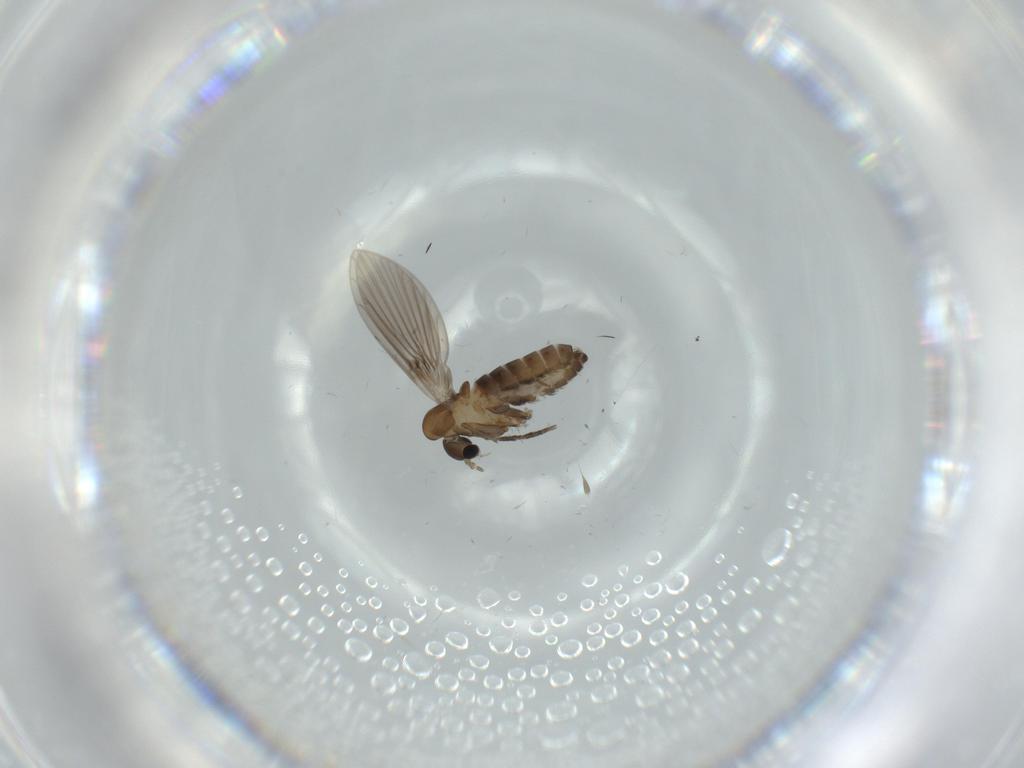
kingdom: Animalia
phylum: Arthropoda
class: Insecta
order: Diptera
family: Psychodidae
